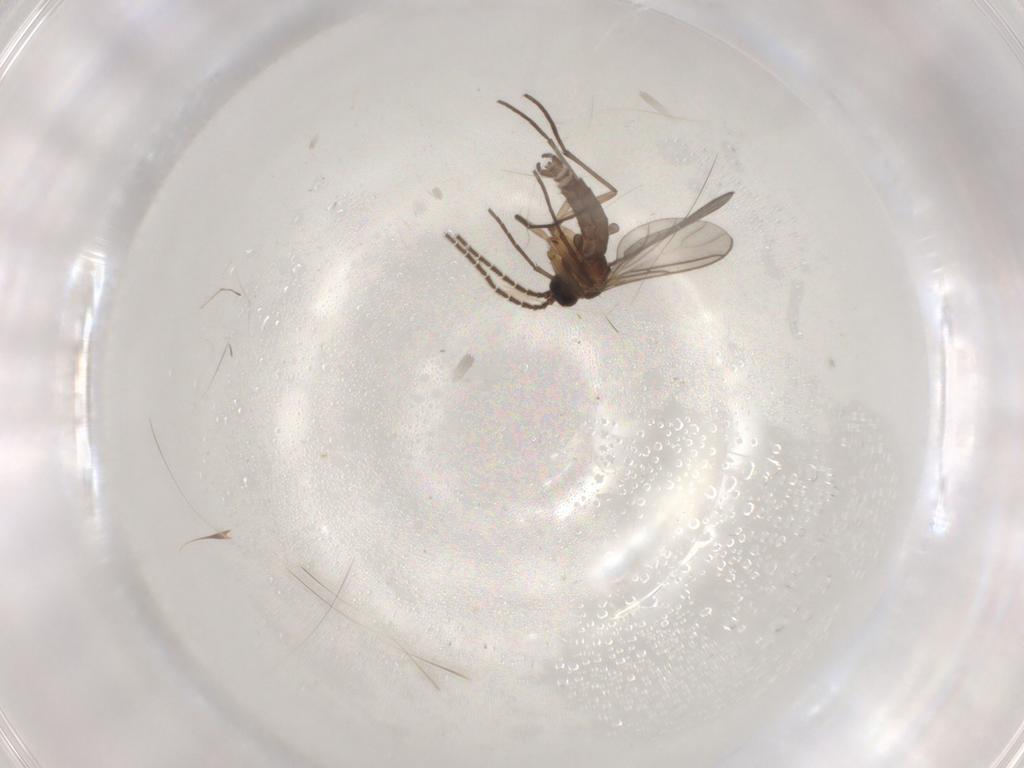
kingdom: Animalia
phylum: Arthropoda
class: Insecta
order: Diptera
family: Sciaridae
